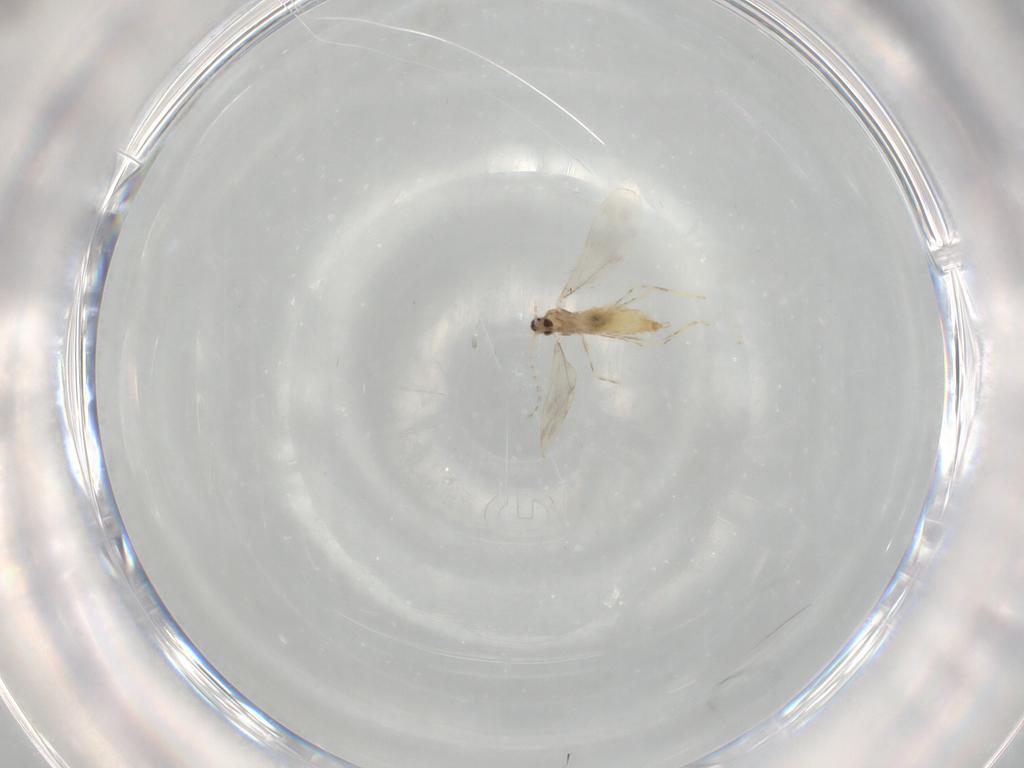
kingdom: Animalia
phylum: Arthropoda
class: Insecta
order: Diptera
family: Cecidomyiidae
